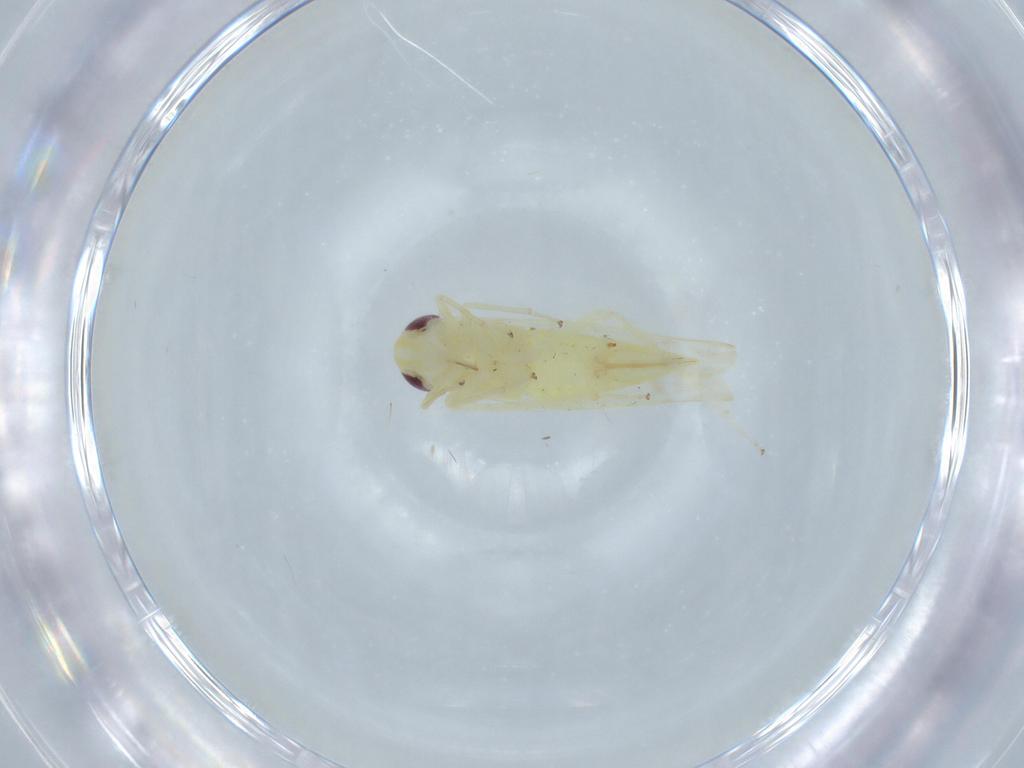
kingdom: Animalia
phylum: Arthropoda
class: Insecta
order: Hemiptera
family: Cicadellidae
